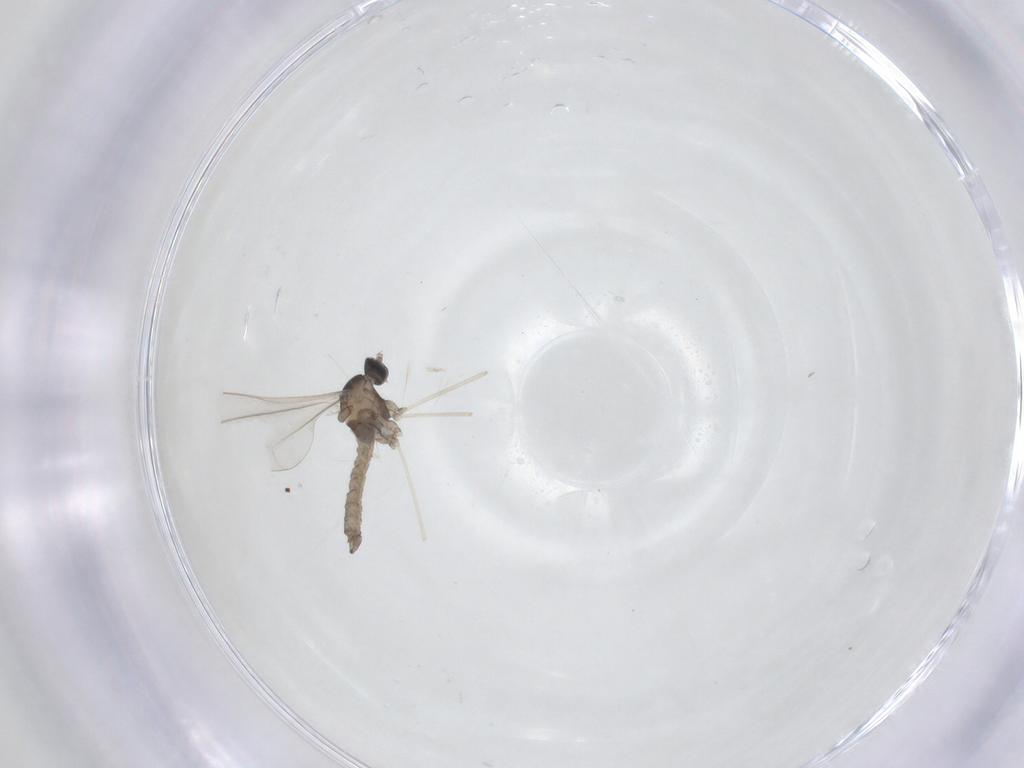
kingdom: Animalia
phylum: Arthropoda
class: Insecta
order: Diptera
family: Cecidomyiidae
